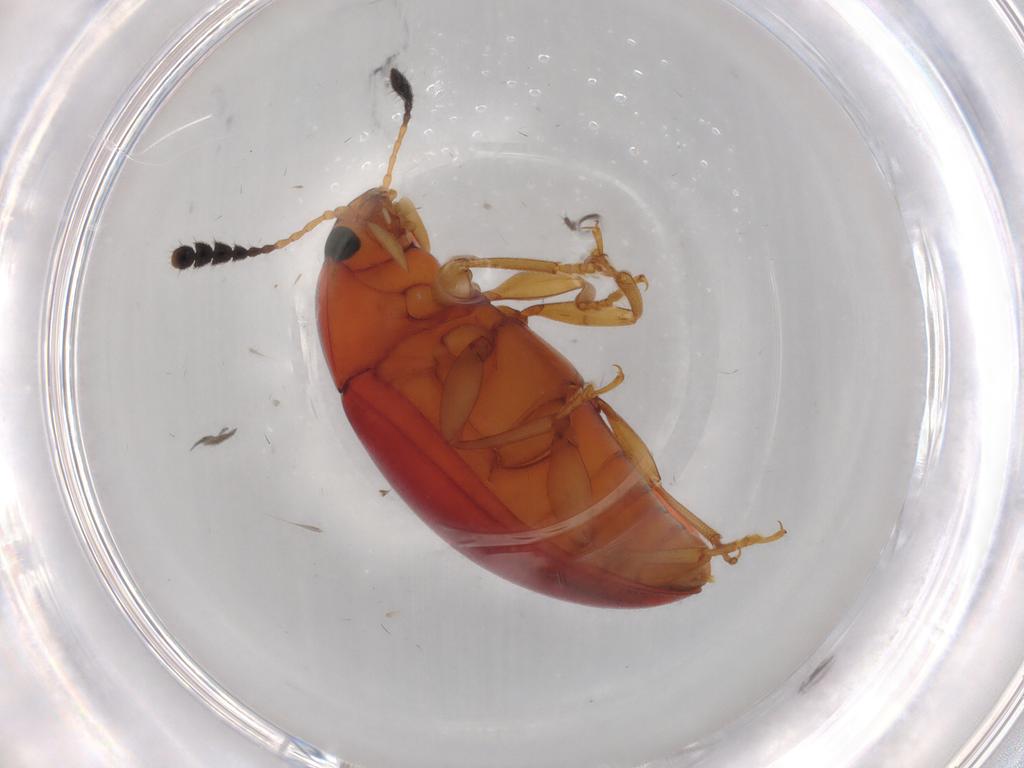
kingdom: Animalia
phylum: Arthropoda
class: Insecta
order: Coleoptera
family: Erotylidae
